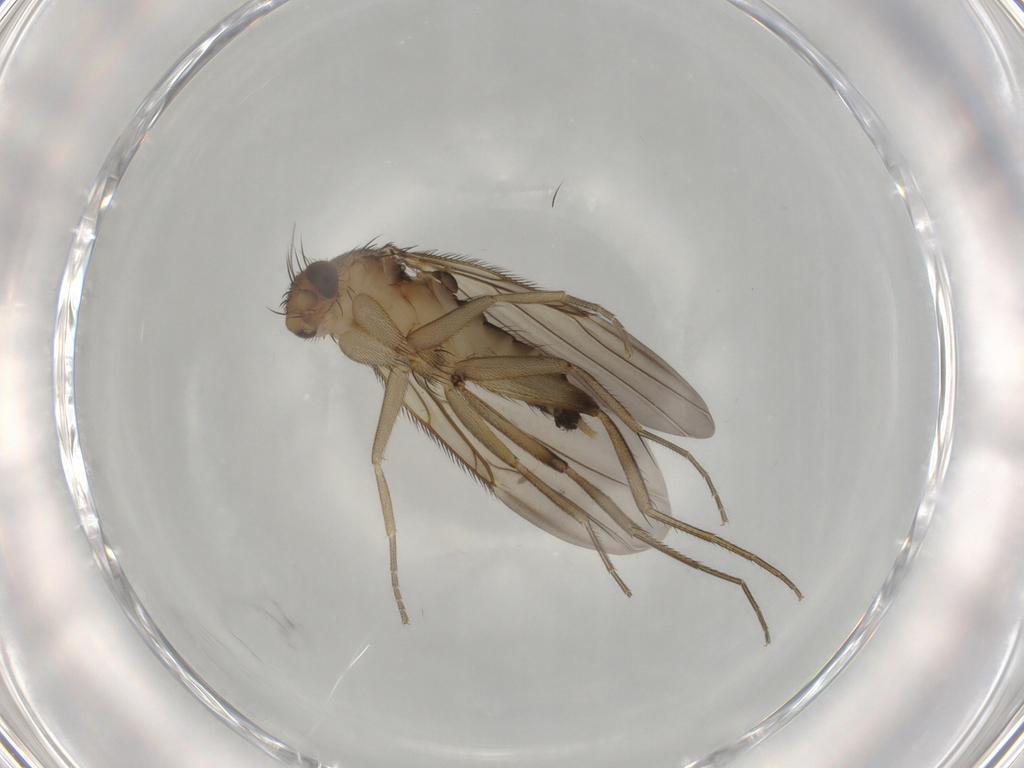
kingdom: Animalia
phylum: Arthropoda
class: Insecta
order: Diptera
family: Phoridae
